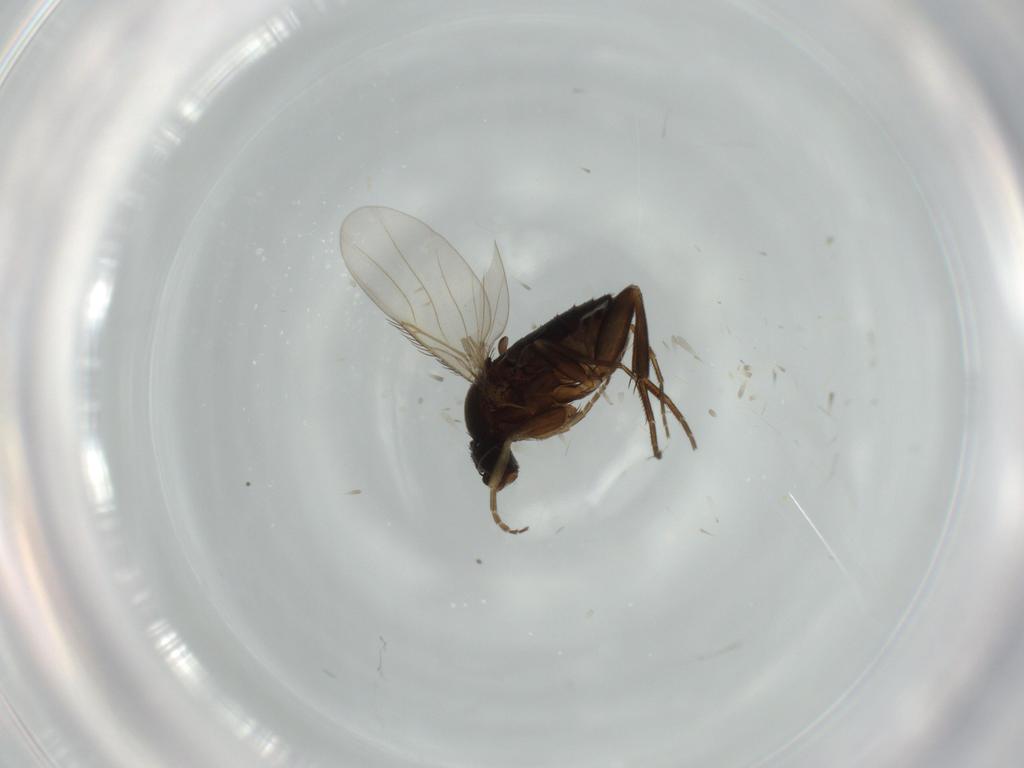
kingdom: Animalia
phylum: Arthropoda
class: Insecta
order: Diptera
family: Phoridae
